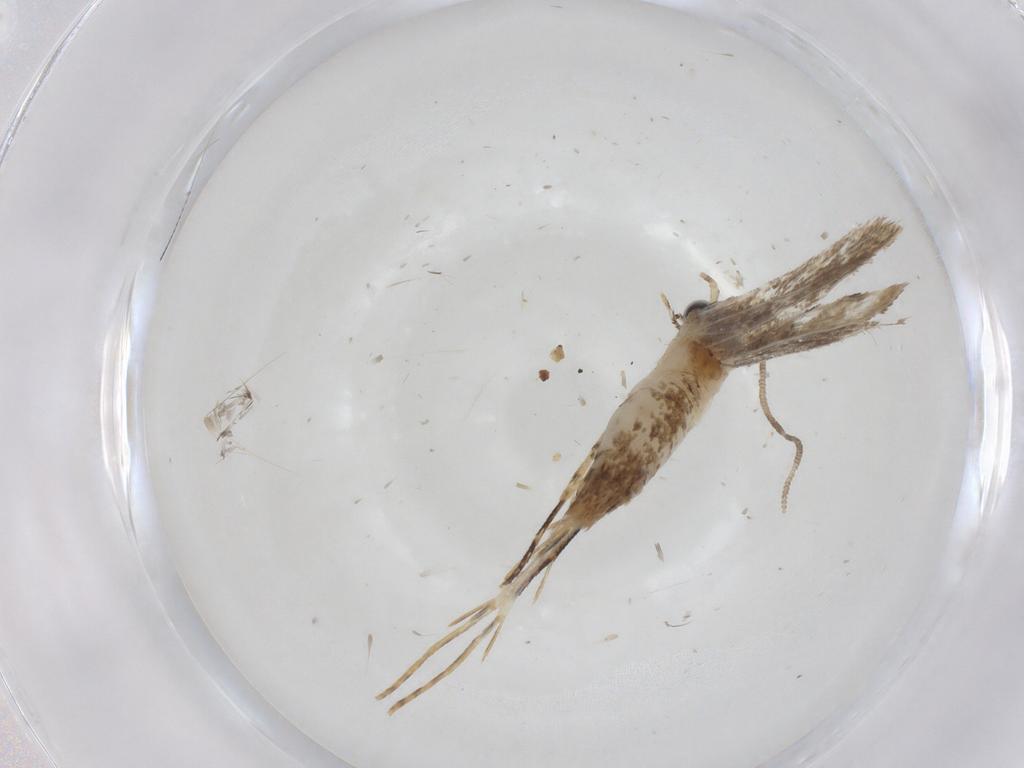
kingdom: Animalia
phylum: Arthropoda
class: Insecta
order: Lepidoptera
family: Tineidae
